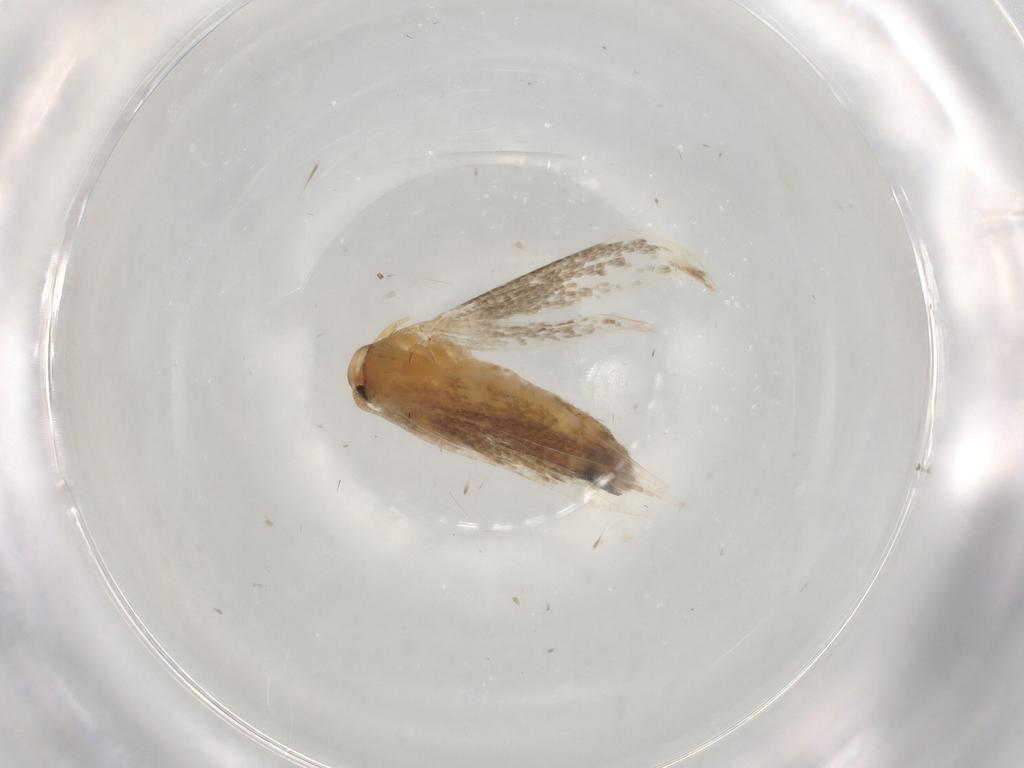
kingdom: Animalia
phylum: Arthropoda
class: Insecta
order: Lepidoptera
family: Cosmopterigidae
